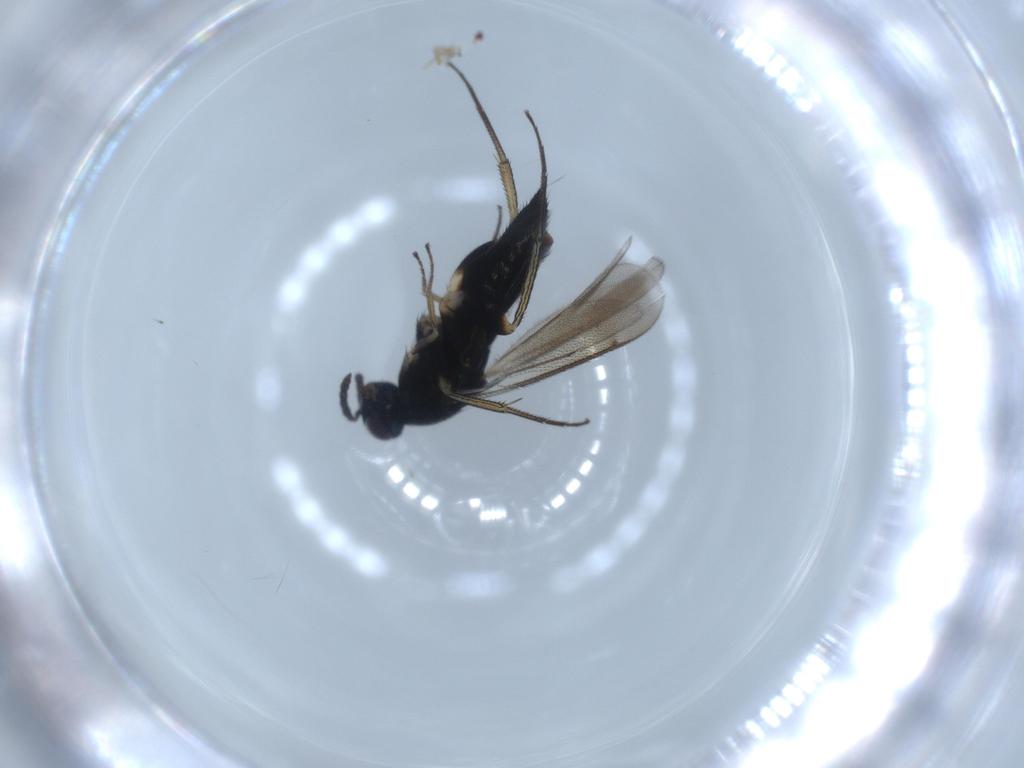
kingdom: Animalia
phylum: Arthropoda
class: Insecta
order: Hymenoptera
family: Eulophidae
